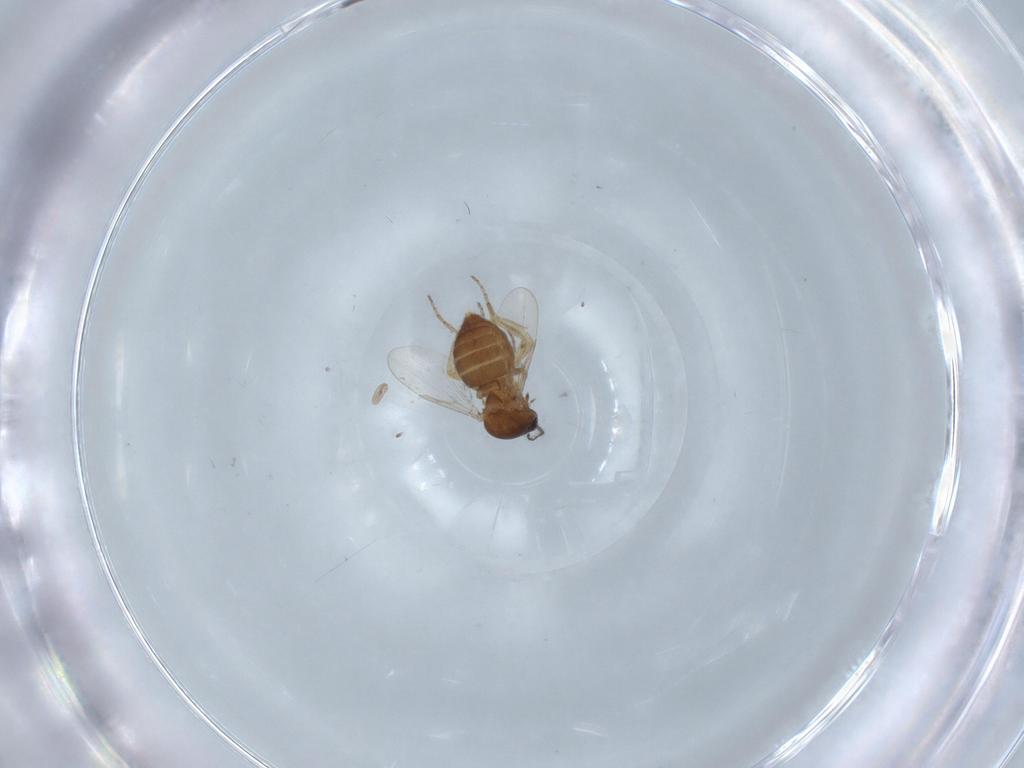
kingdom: Animalia
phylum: Arthropoda
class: Insecta
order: Diptera
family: Ceratopogonidae
